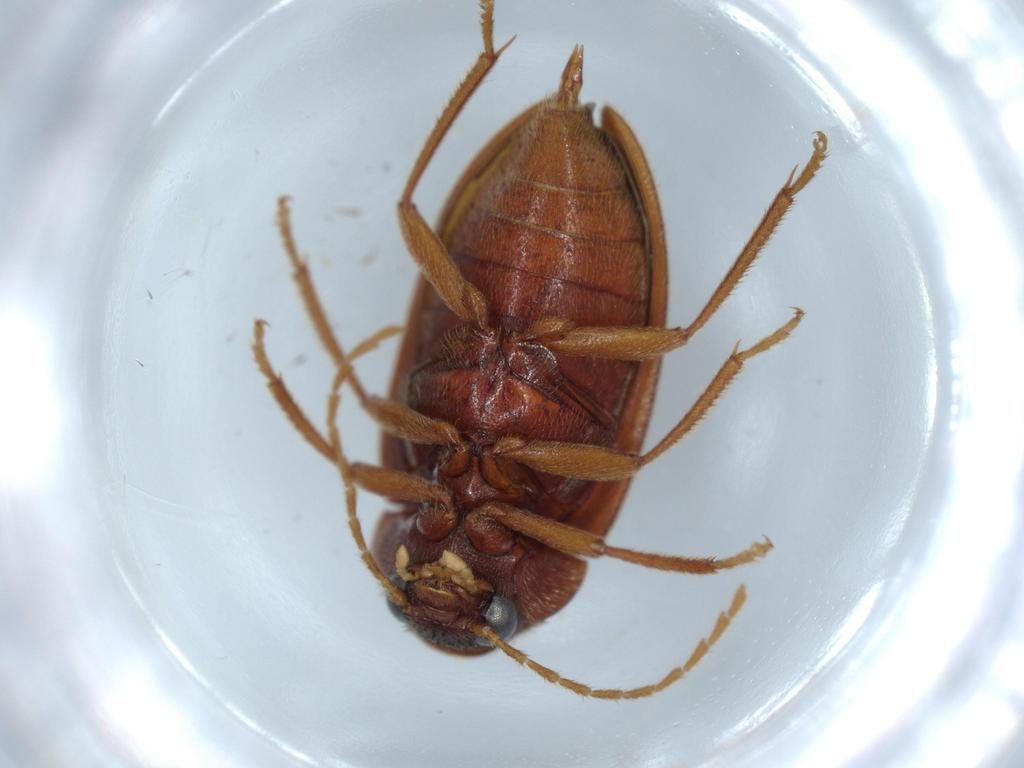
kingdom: Animalia
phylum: Arthropoda
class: Insecta
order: Coleoptera
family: Ptilodactylidae
